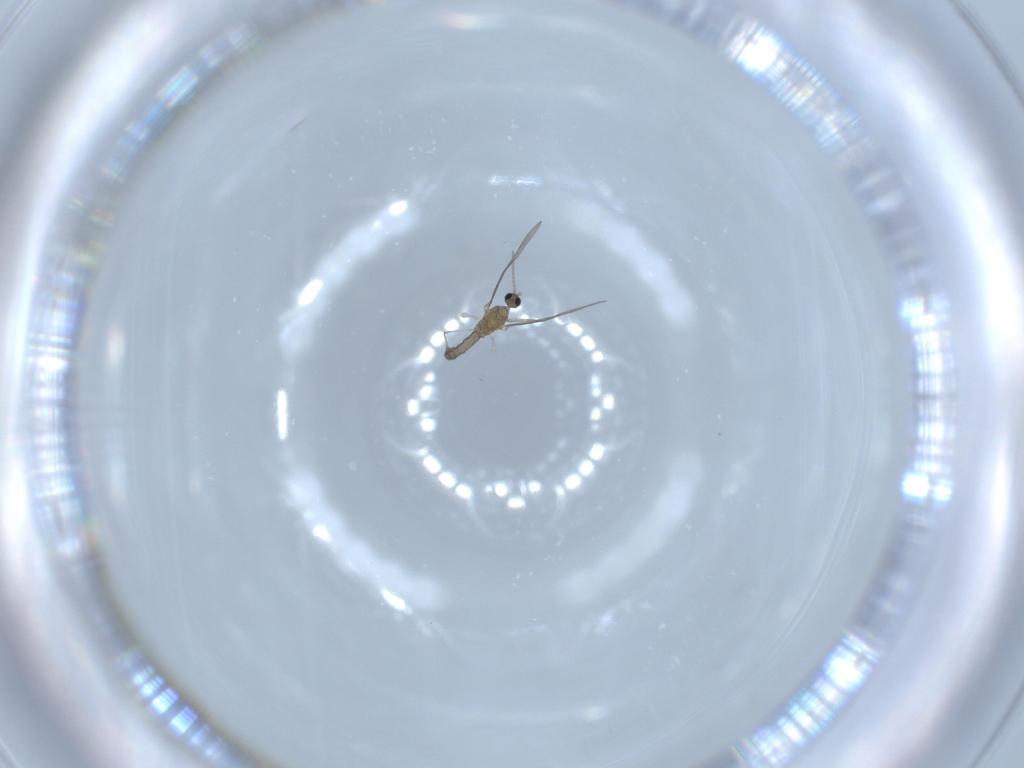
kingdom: Animalia
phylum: Arthropoda
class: Insecta
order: Diptera
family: Cecidomyiidae
